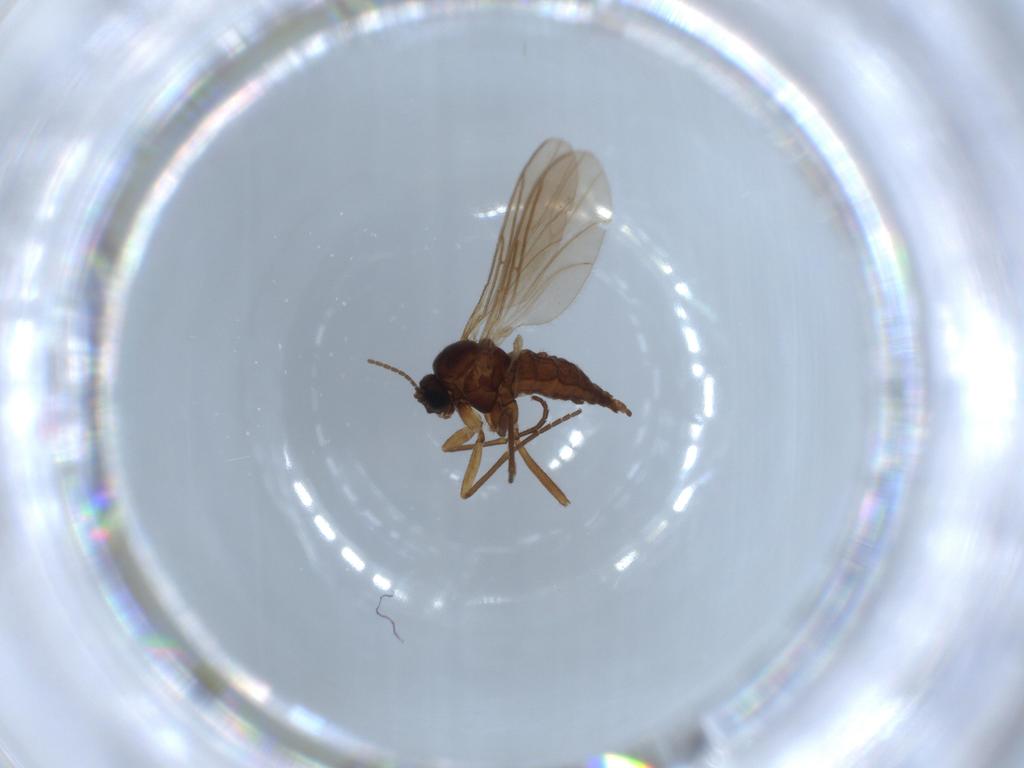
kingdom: Animalia
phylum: Arthropoda
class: Insecta
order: Diptera
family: Sciaridae
